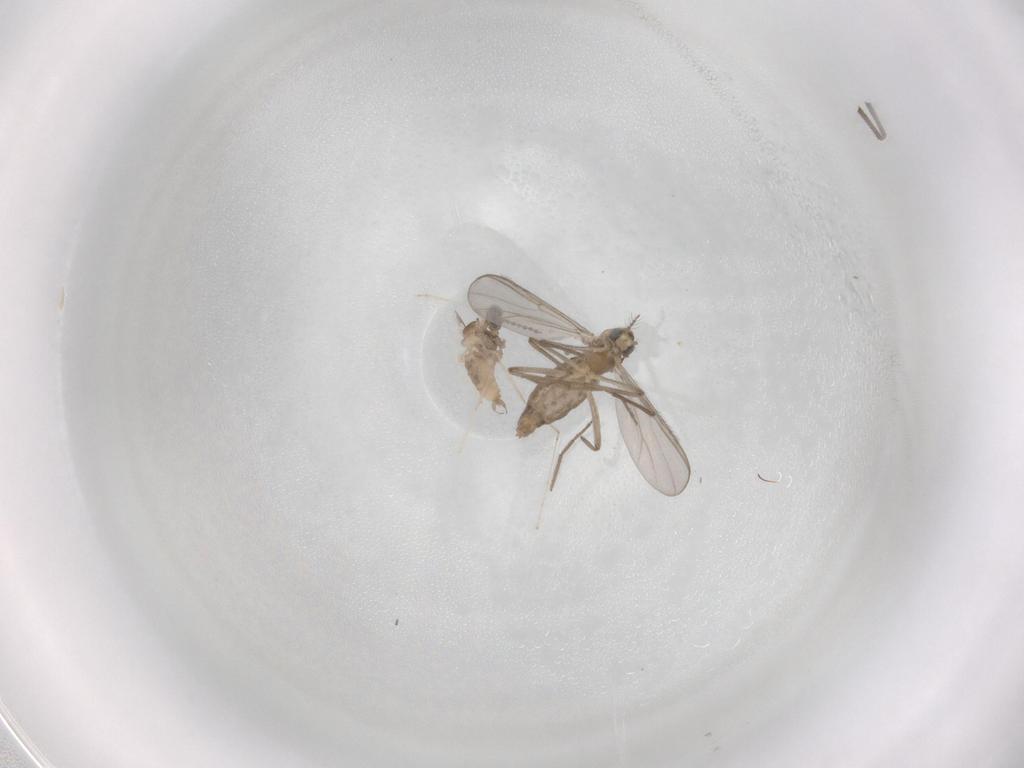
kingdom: Animalia
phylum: Arthropoda
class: Insecta
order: Diptera
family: Chironomidae
